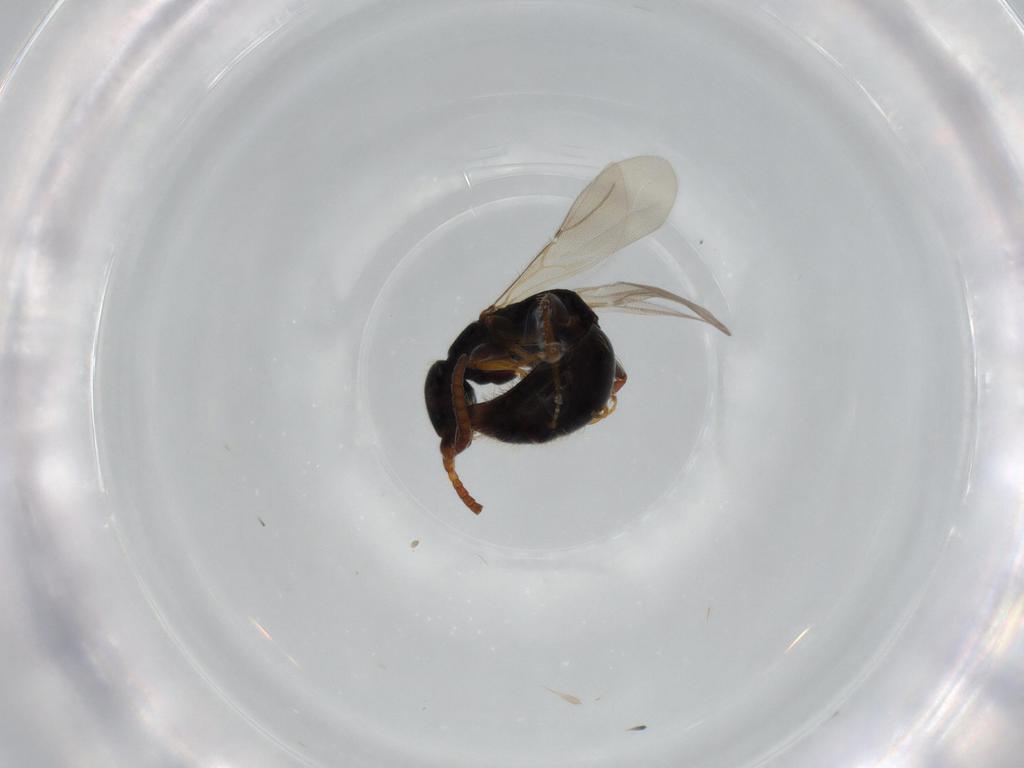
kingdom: Animalia
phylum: Arthropoda
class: Insecta
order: Hymenoptera
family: Bethylidae
